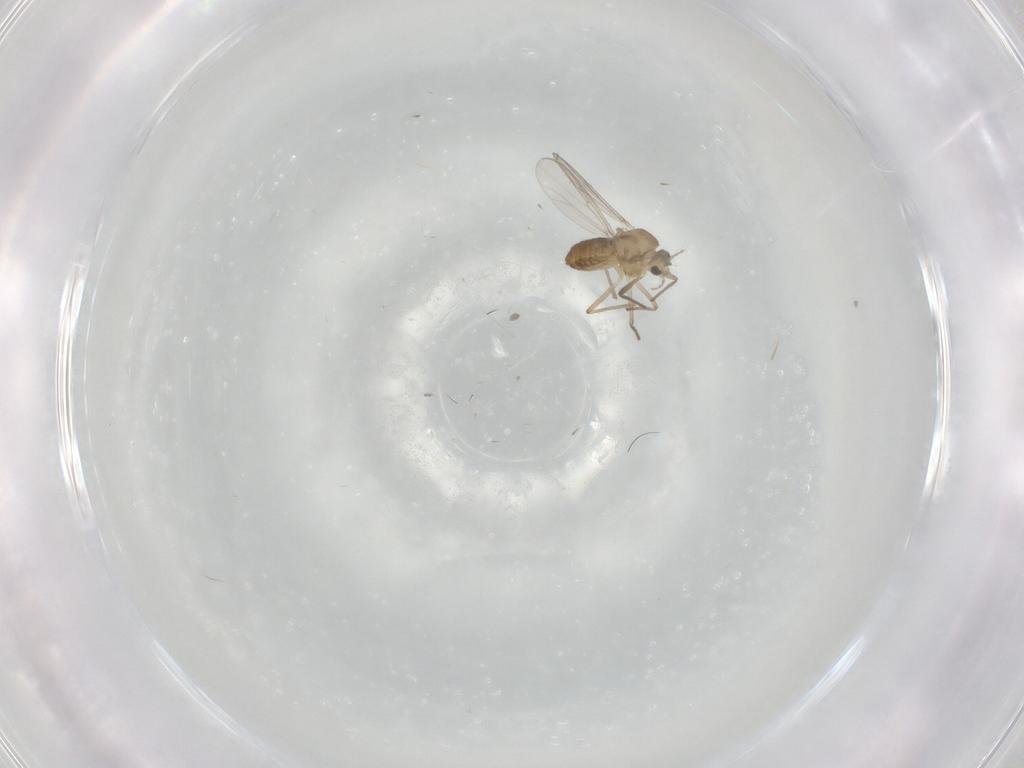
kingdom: Animalia
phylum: Arthropoda
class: Insecta
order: Diptera
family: Chironomidae
